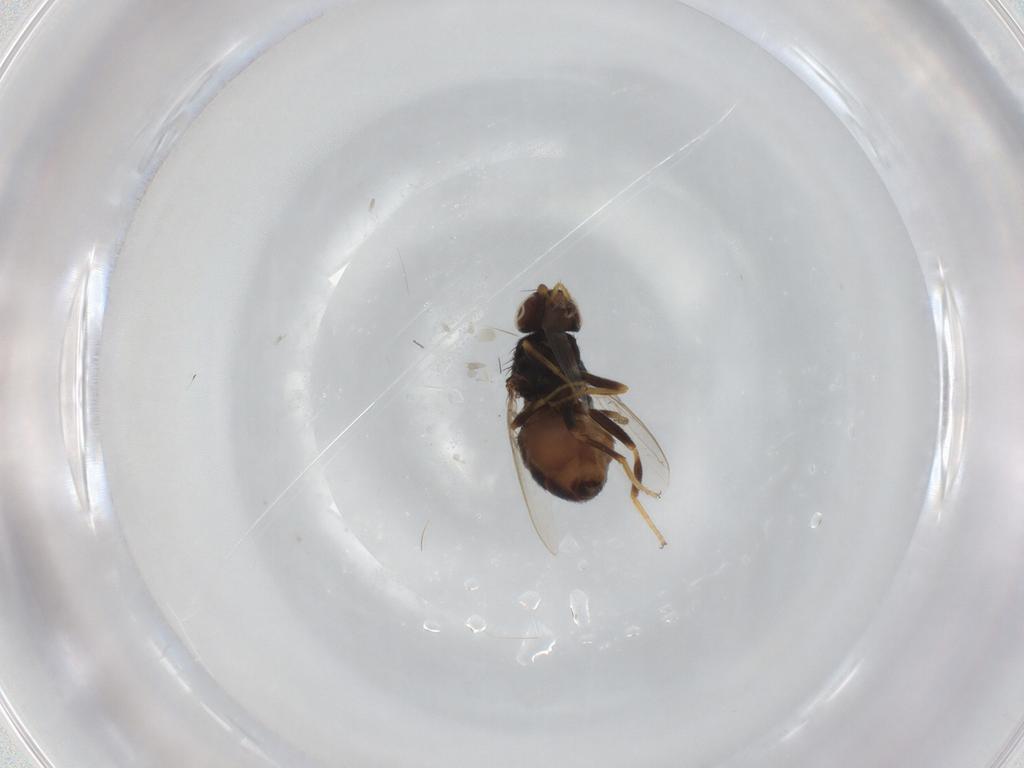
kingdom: Animalia
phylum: Arthropoda
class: Insecta
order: Diptera
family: Chloropidae
